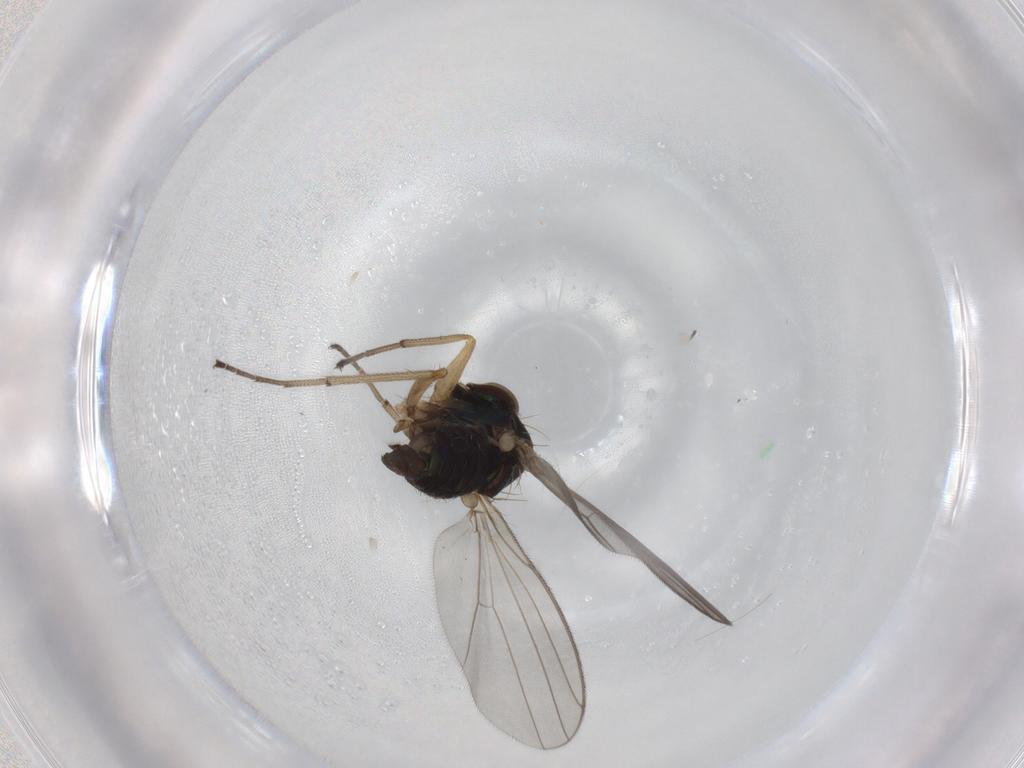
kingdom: Animalia
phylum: Arthropoda
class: Insecta
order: Diptera
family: Dolichopodidae
